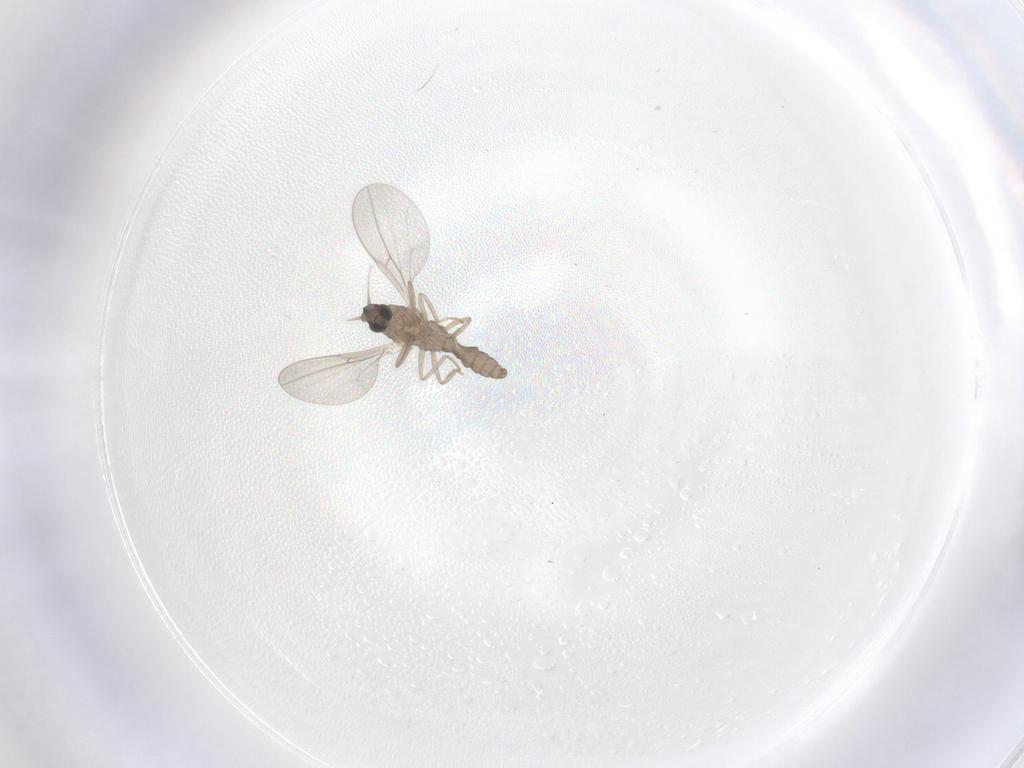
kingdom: Animalia
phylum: Arthropoda
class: Insecta
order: Diptera
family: Cecidomyiidae
